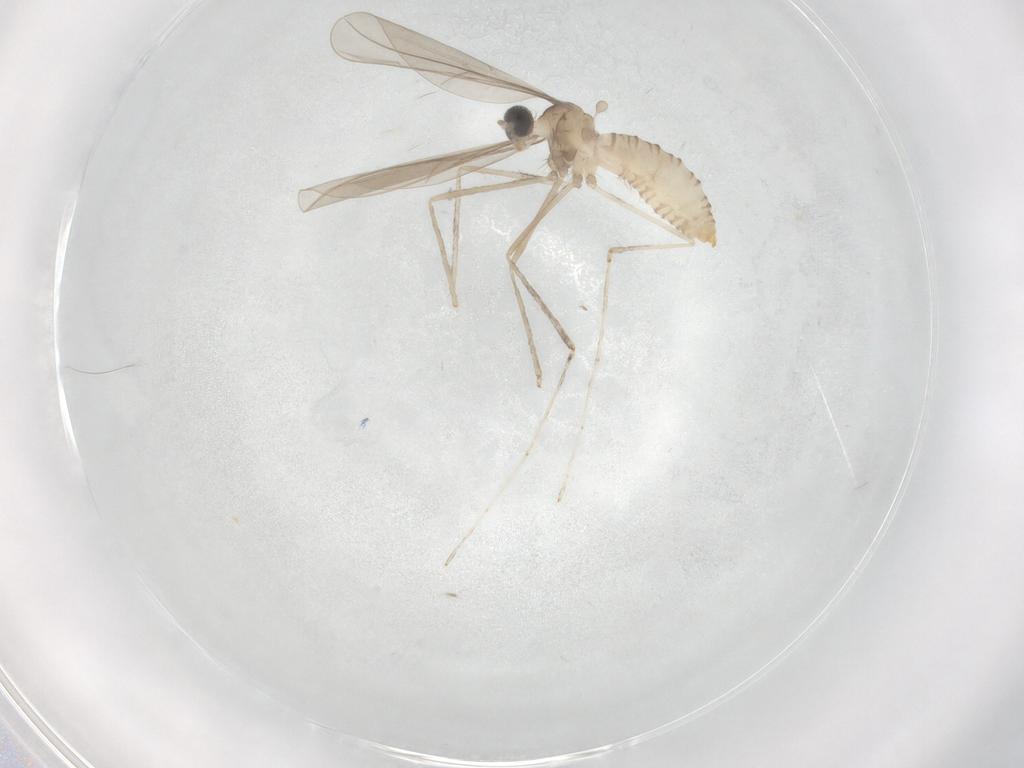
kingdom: Animalia
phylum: Arthropoda
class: Insecta
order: Diptera
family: Cecidomyiidae
